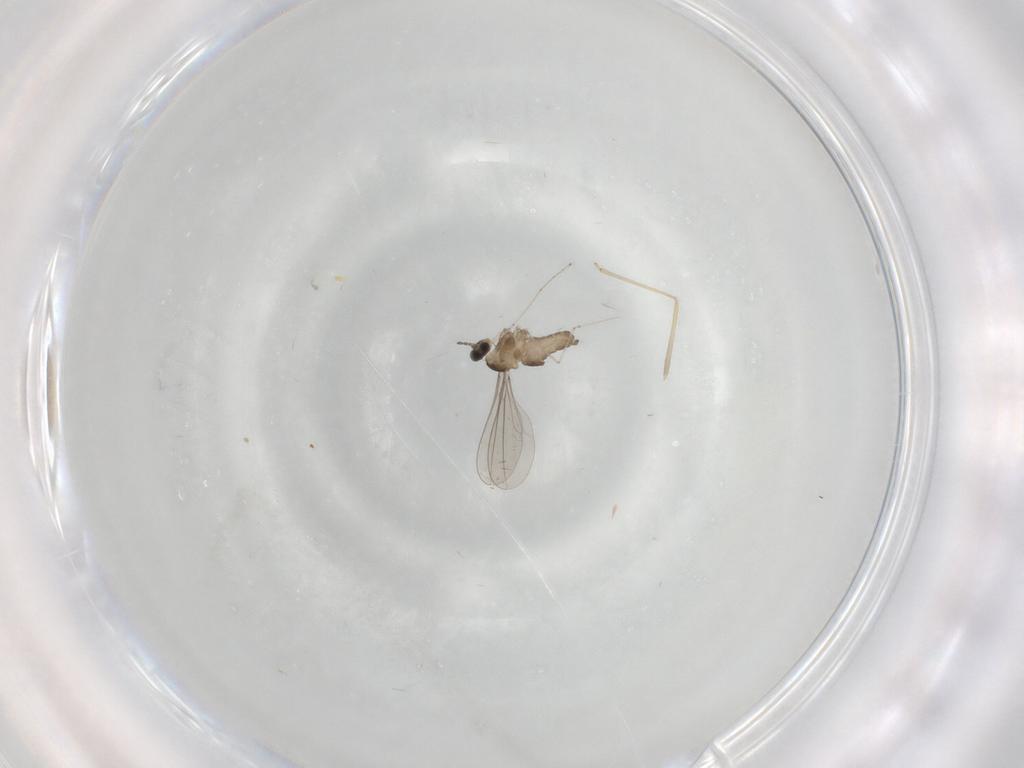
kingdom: Animalia
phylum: Arthropoda
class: Insecta
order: Diptera
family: Cecidomyiidae
